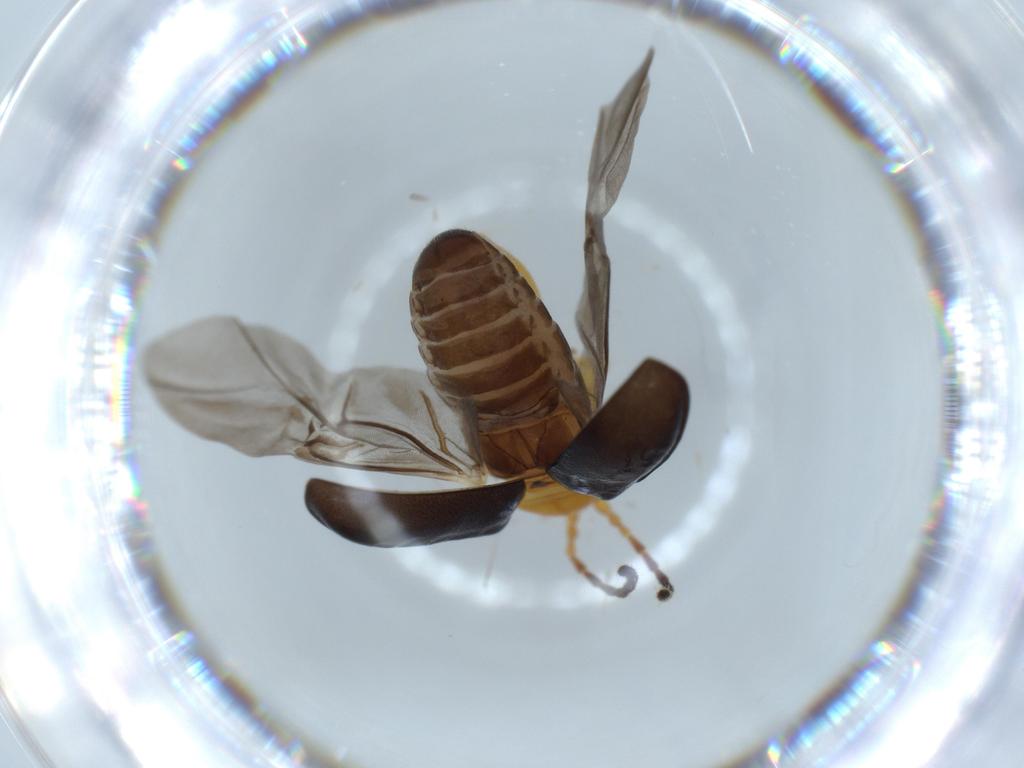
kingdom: Animalia
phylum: Arthropoda
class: Insecta
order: Coleoptera
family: Chrysomelidae
